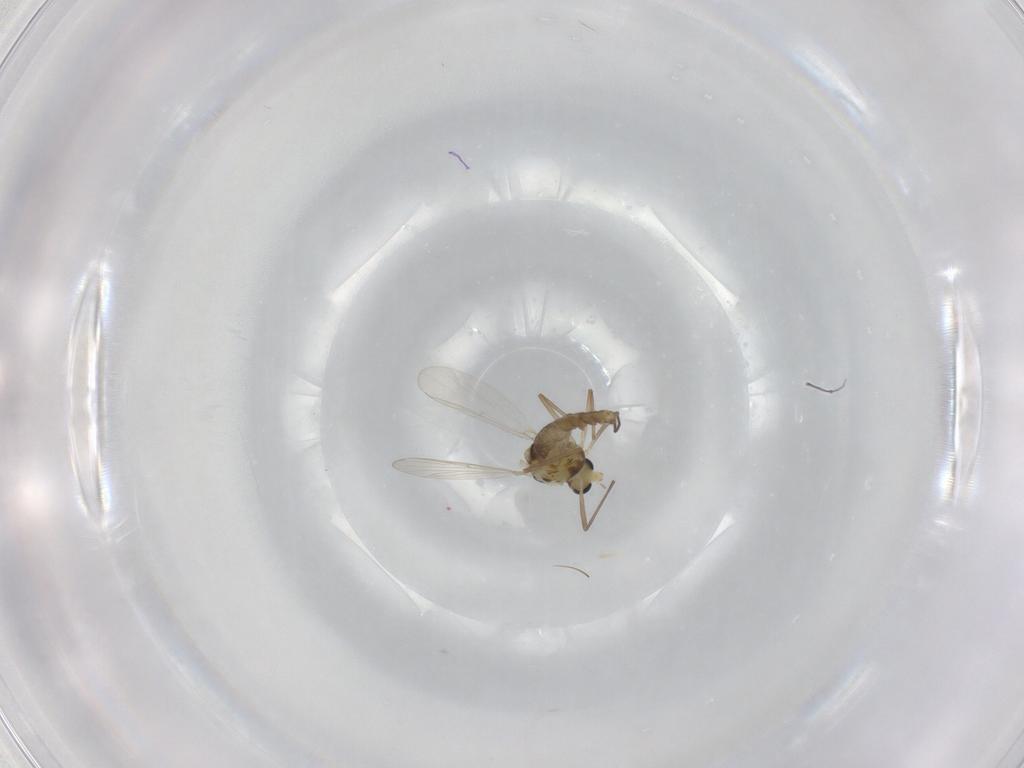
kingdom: Animalia
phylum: Arthropoda
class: Insecta
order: Diptera
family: Chironomidae
